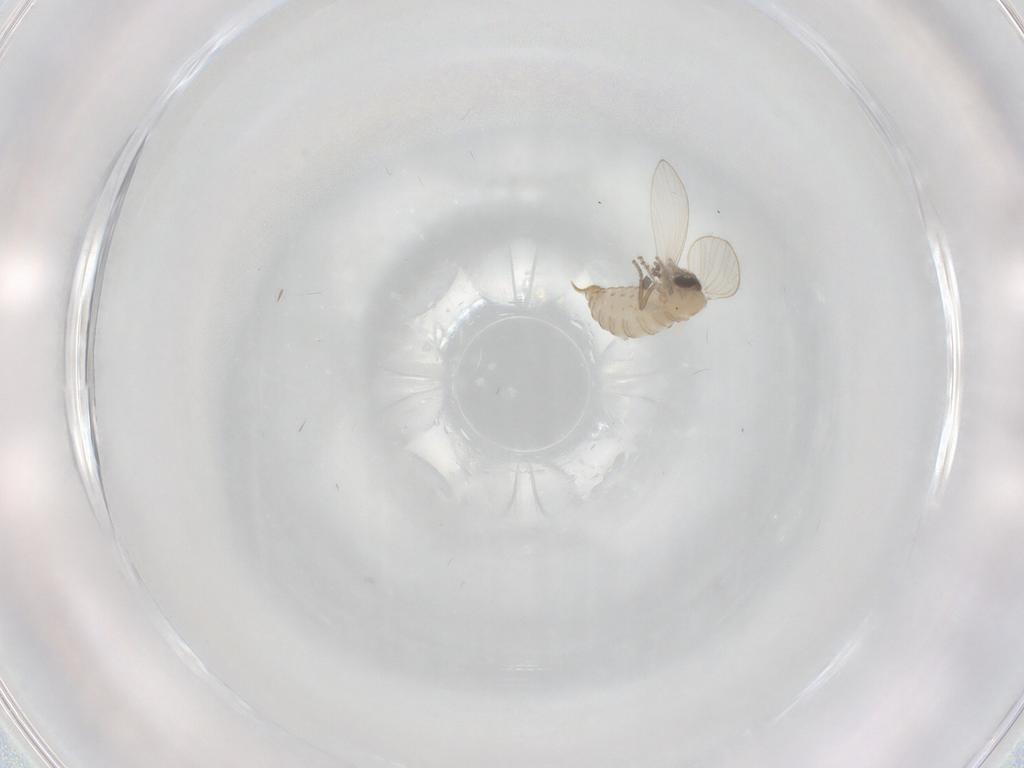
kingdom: Animalia
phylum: Arthropoda
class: Insecta
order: Diptera
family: Psychodidae
